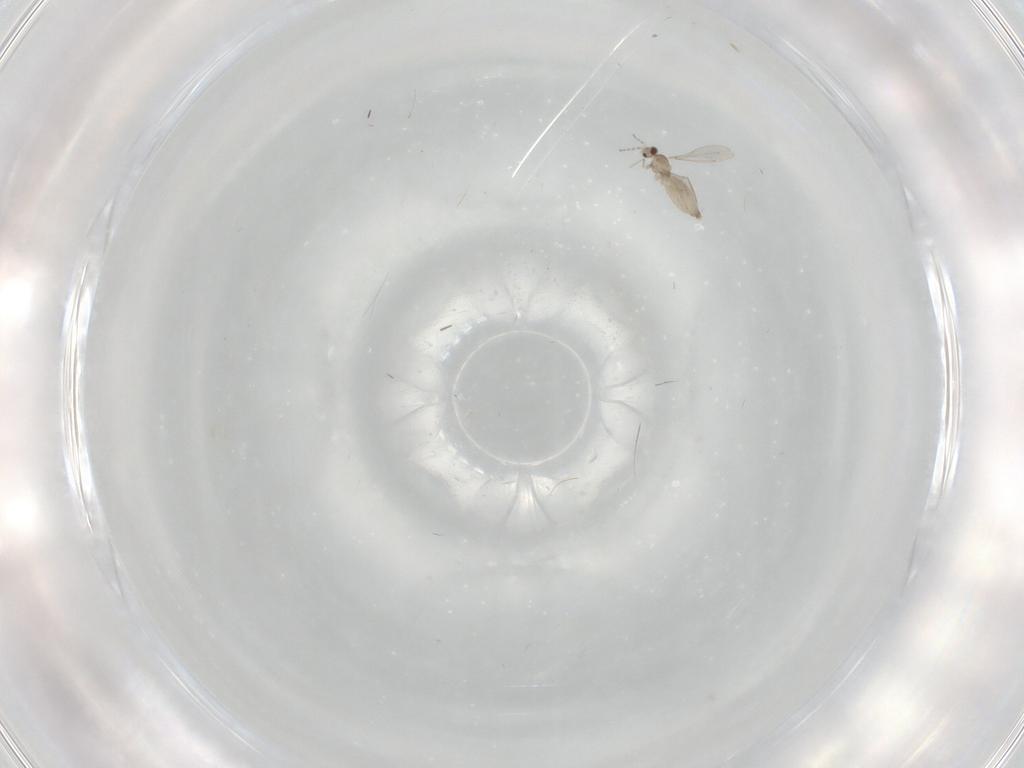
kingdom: Animalia
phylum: Arthropoda
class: Insecta
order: Diptera
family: Cecidomyiidae
